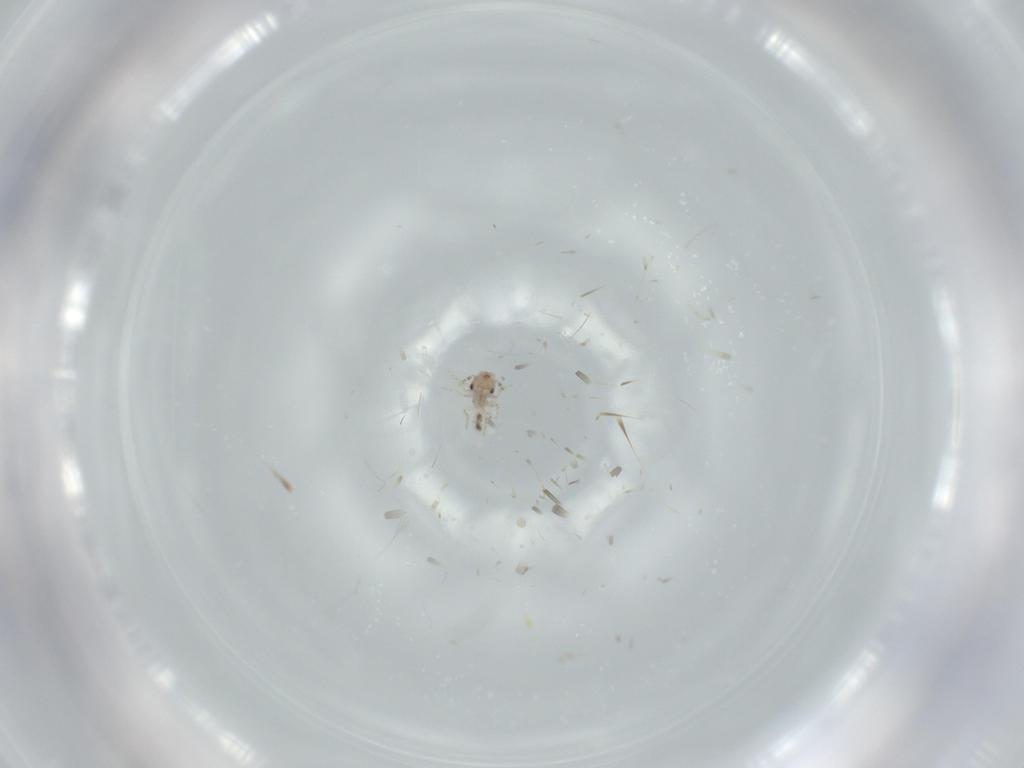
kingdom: Animalia
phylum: Arthropoda
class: Insecta
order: Psocodea
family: Lepidopsocidae
